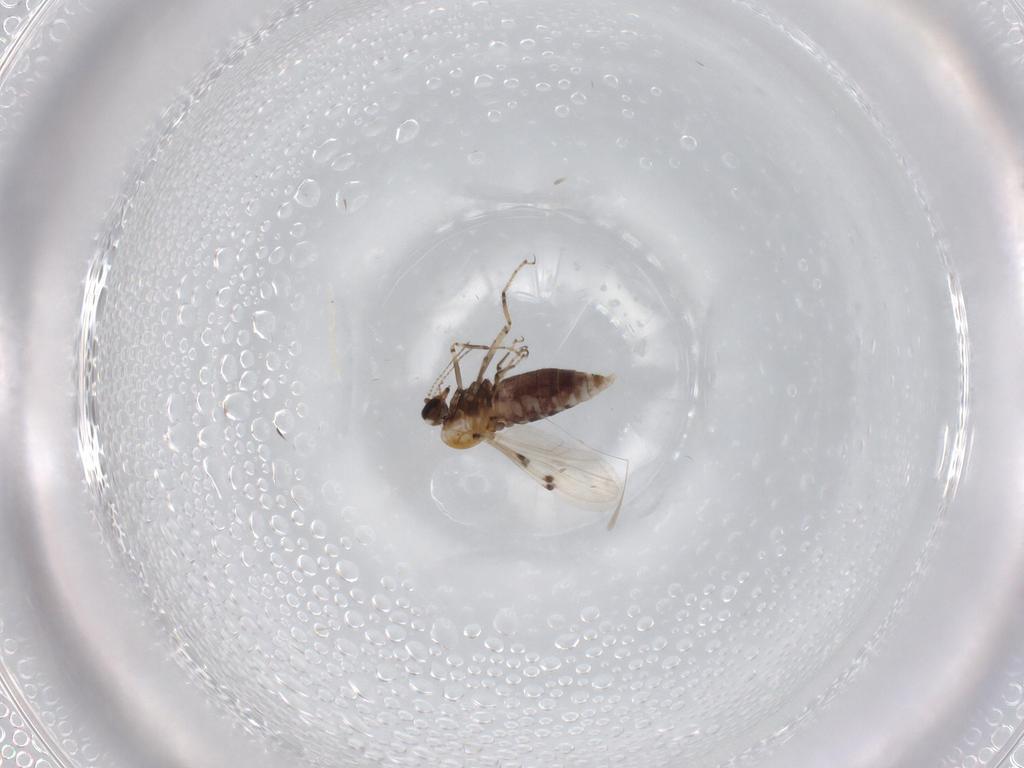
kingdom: Animalia
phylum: Arthropoda
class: Insecta
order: Diptera
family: Ceratopogonidae
